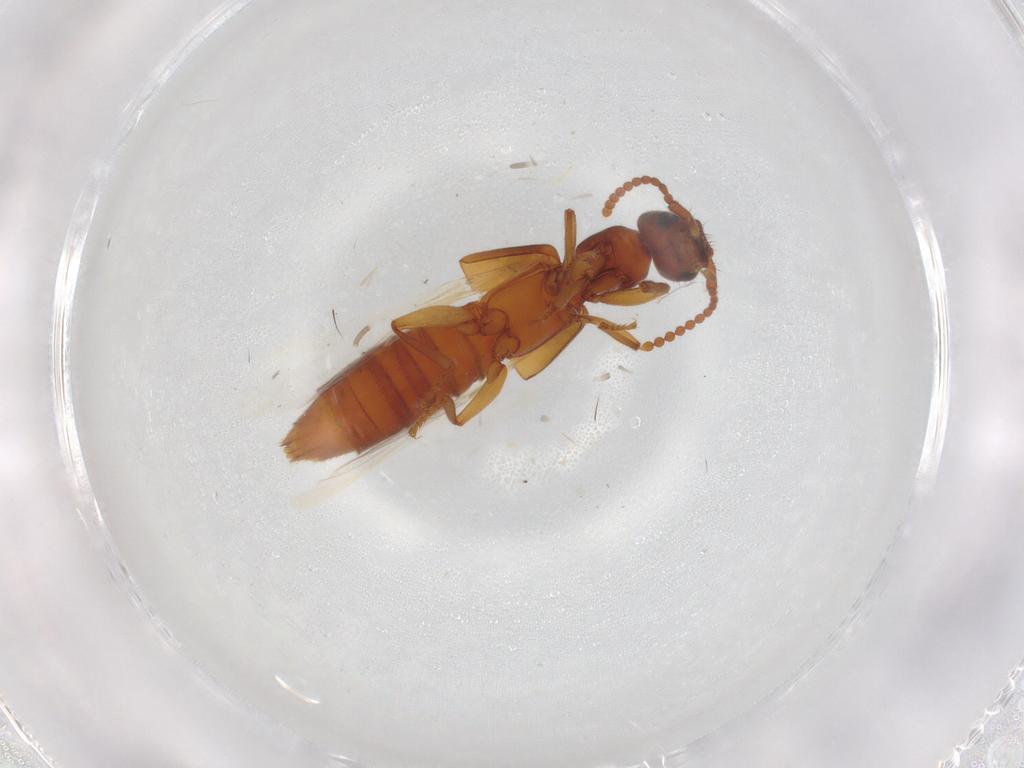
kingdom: Animalia
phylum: Arthropoda
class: Insecta
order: Coleoptera
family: Staphylinidae
